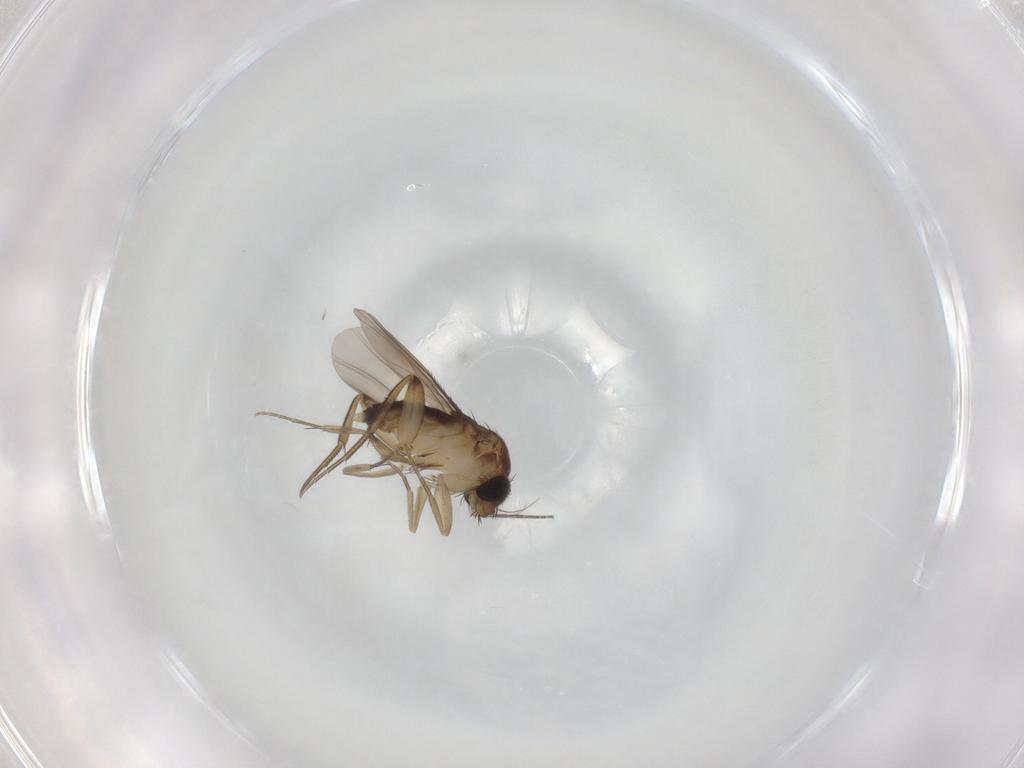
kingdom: Animalia
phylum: Arthropoda
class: Insecta
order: Diptera
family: Phoridae
